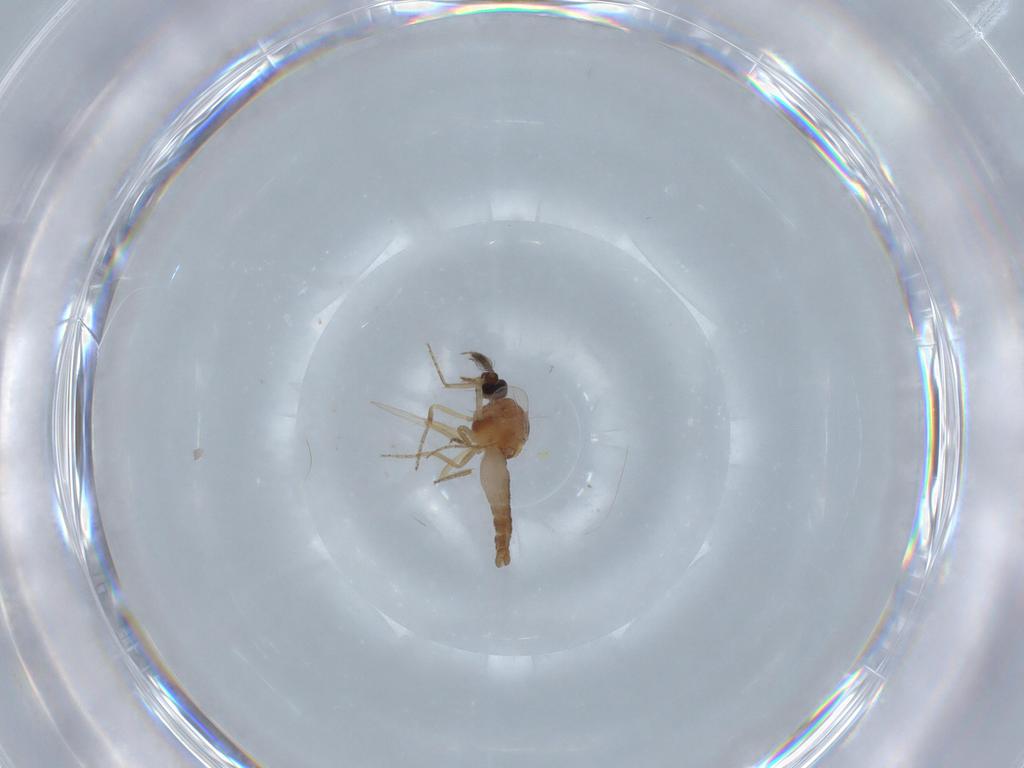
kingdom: Animalia
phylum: Arthropoda
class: Insecta
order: Diptera
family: Ceratopogonidae
